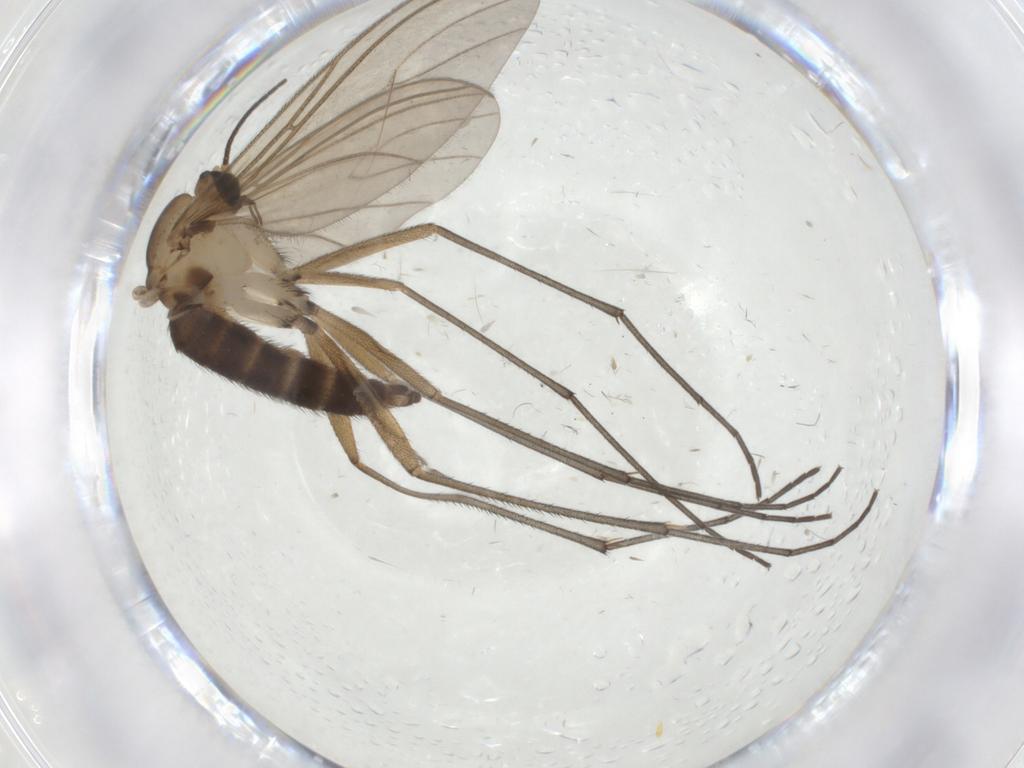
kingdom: Animalia
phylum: Arthropoda
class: Insecta
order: Diptera
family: Sciaridae
